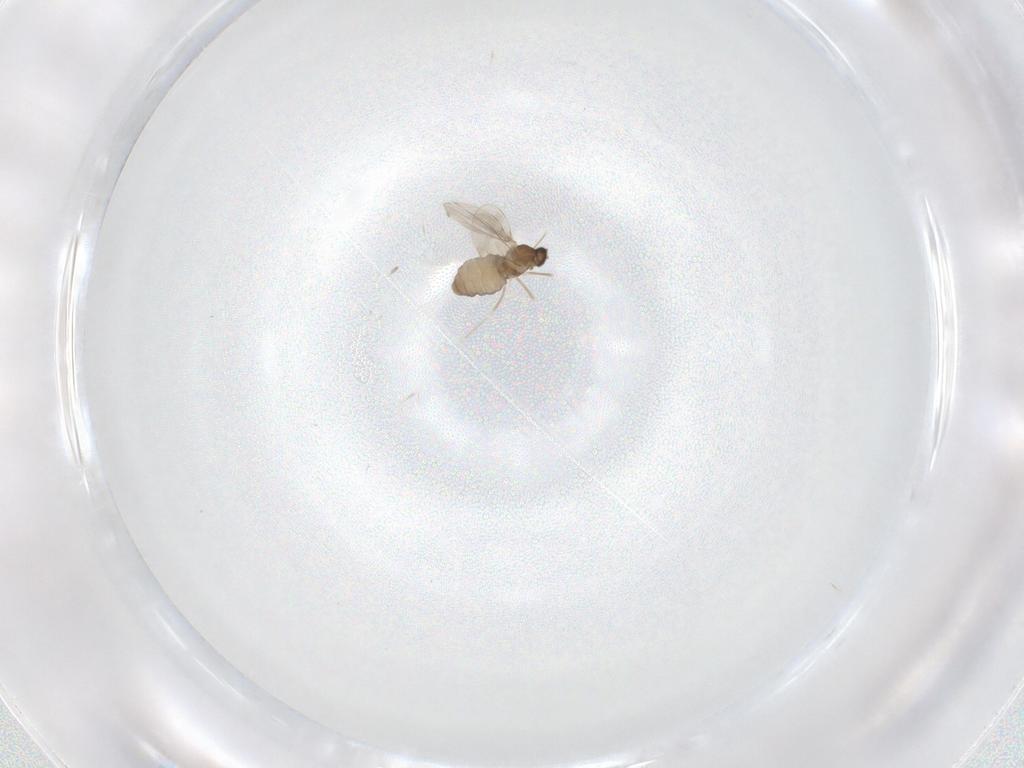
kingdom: Animalia
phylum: Arthropoda
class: Insecta
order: Diptera
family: Cecidomyiidae
